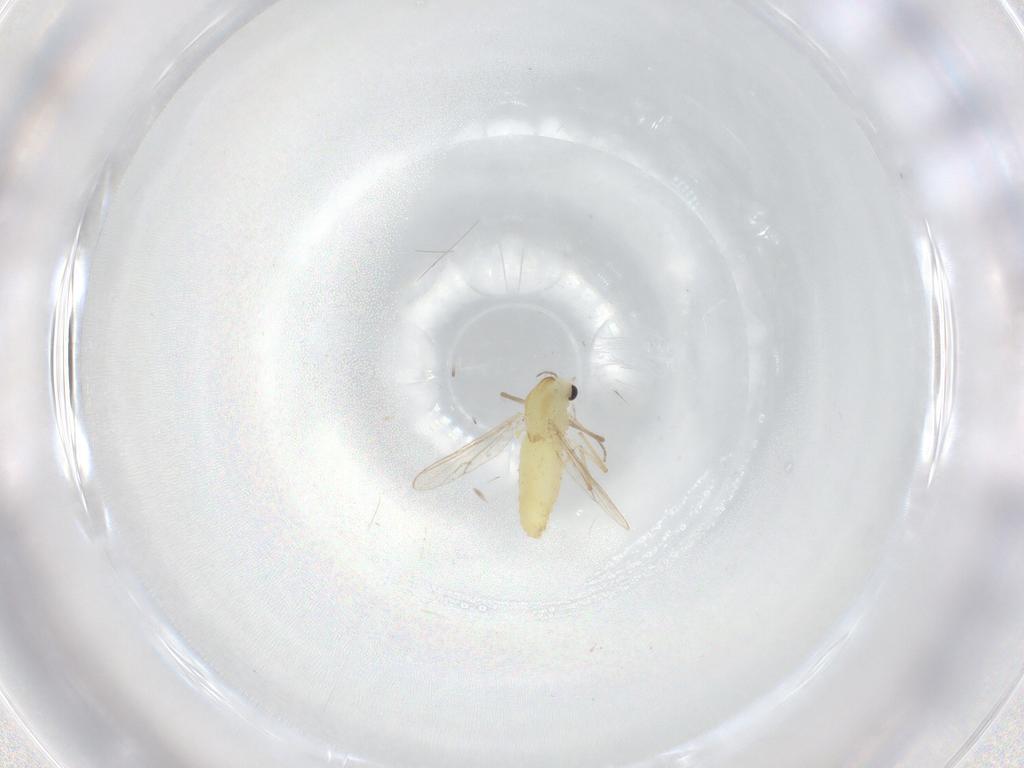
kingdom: Animalia
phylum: Arthropoda
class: Insecta
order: Diptera
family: Chironomidae
